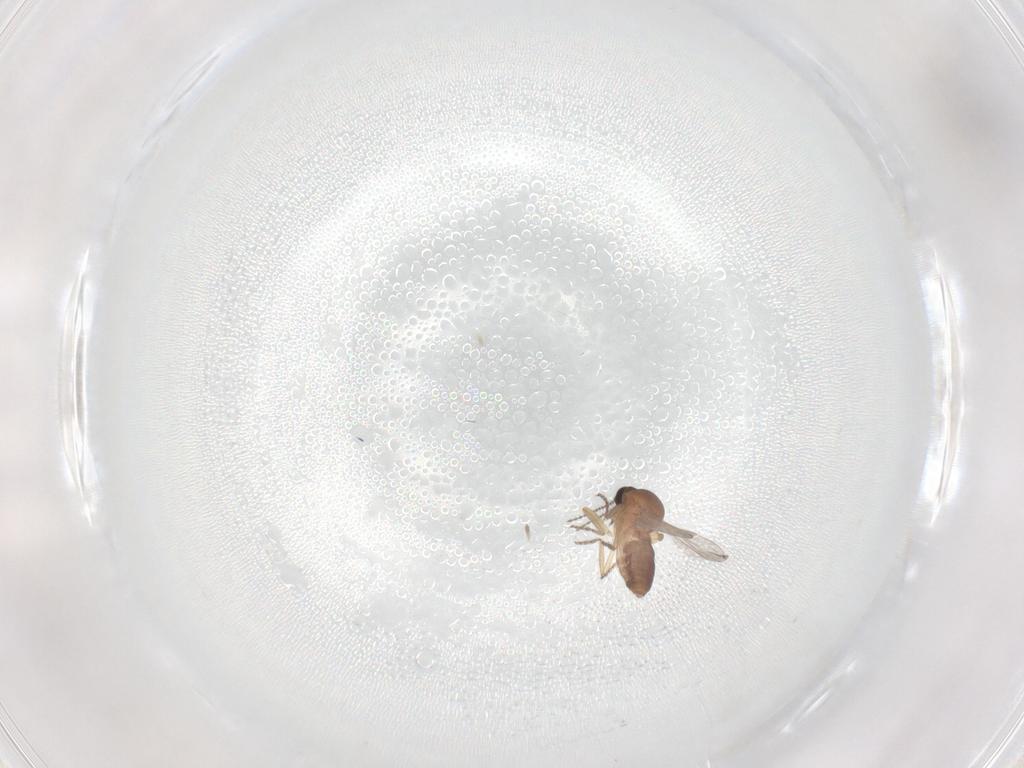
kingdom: Animalia
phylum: Arthropoda
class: Insecta
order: Diptera
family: Ceratopogonidae
